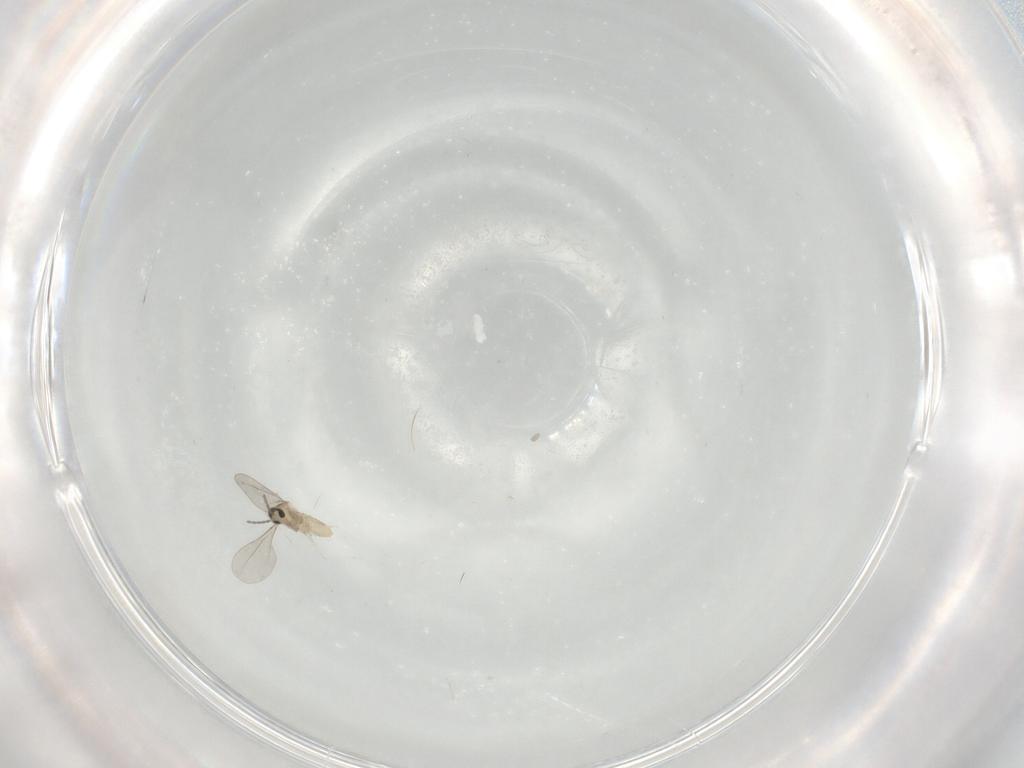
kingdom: Animalia
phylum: Arthropoda
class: Insecta
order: Diptera
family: Cecidomyiidae
